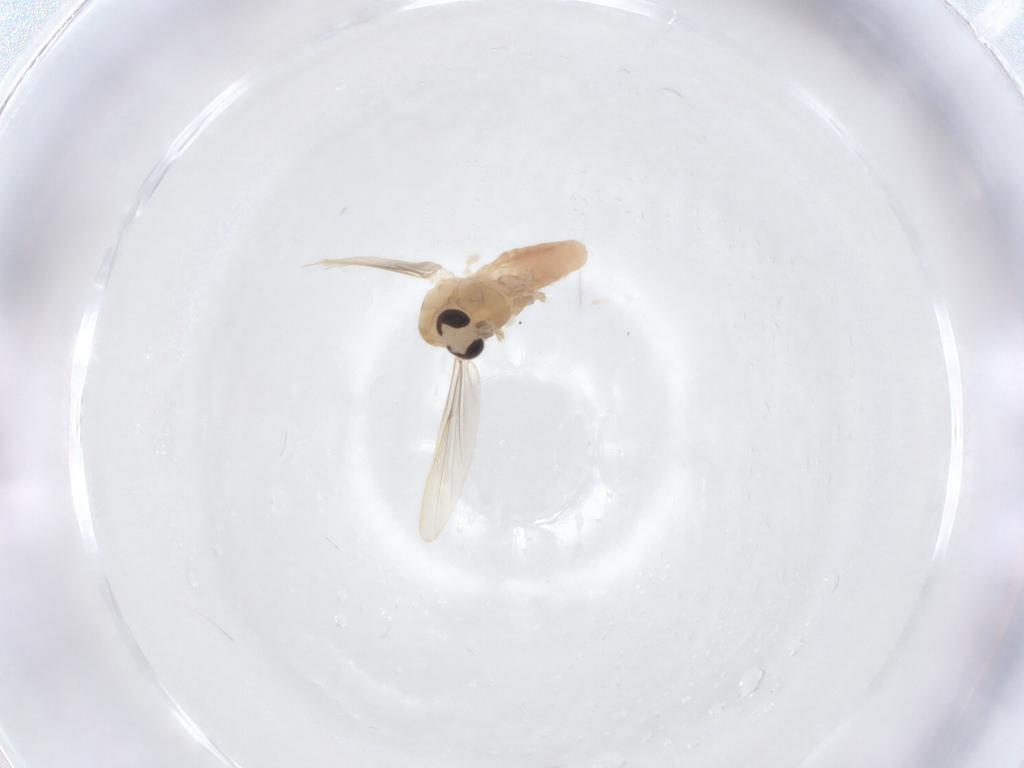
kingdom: Animalia
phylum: Arthropoda
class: Insecta
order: Diptera
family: Chironomidae
